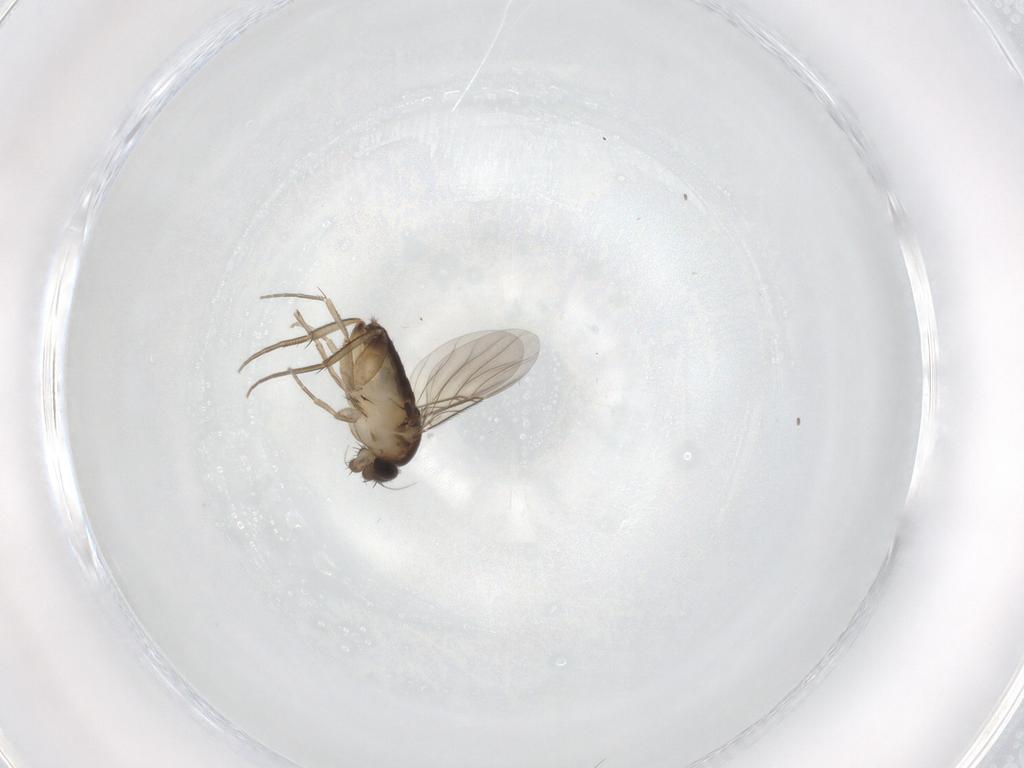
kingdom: Animalia
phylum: Arthropoda
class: Insecta
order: Diptera
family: Phoridae
